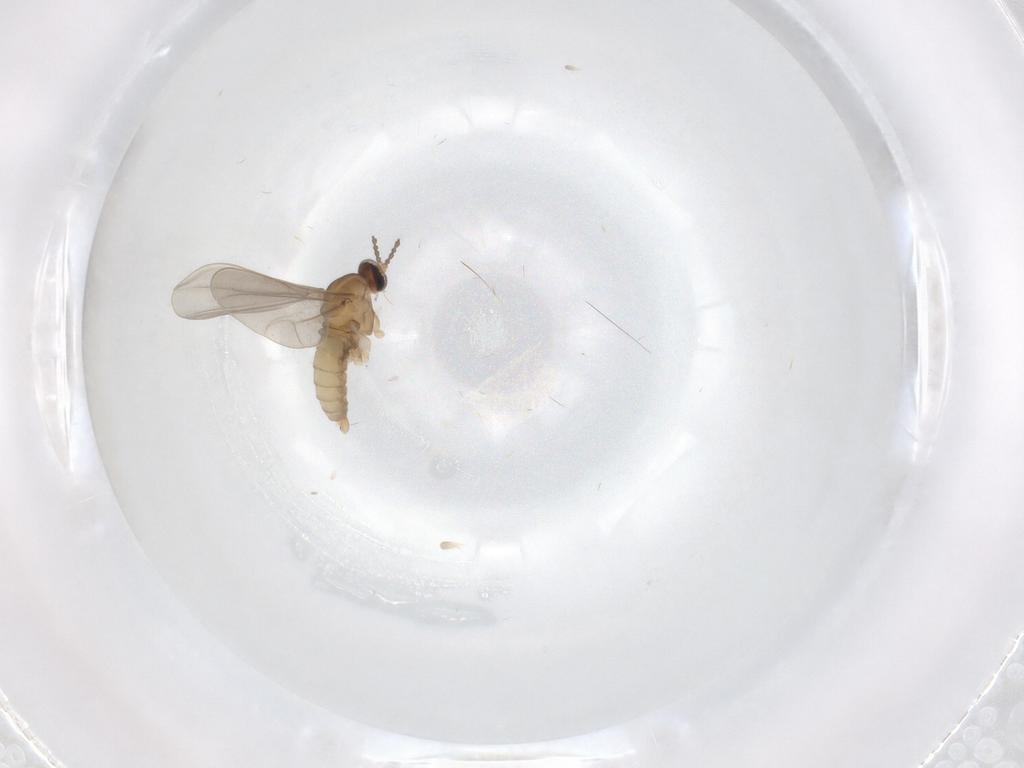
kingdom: Animalia
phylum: Arthropoda
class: Insecta
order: Diptera
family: Cecidomyiidae
